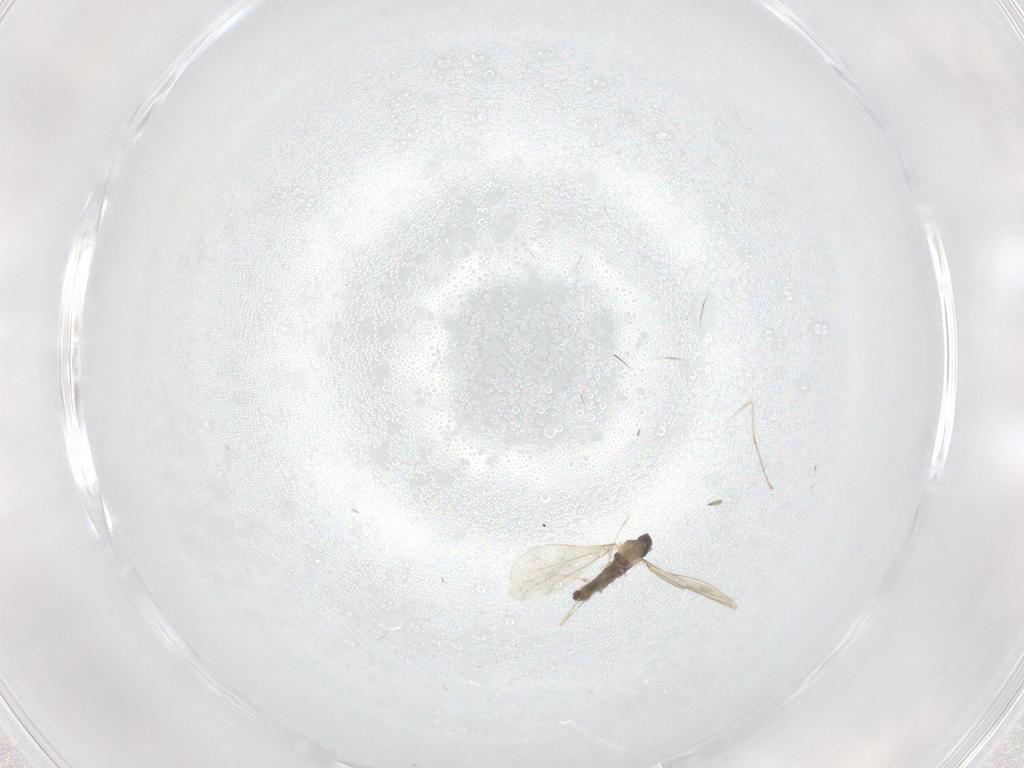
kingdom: Animalia
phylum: Arthropoda
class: Insecta
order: Diptera
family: Cecidomyiidae
